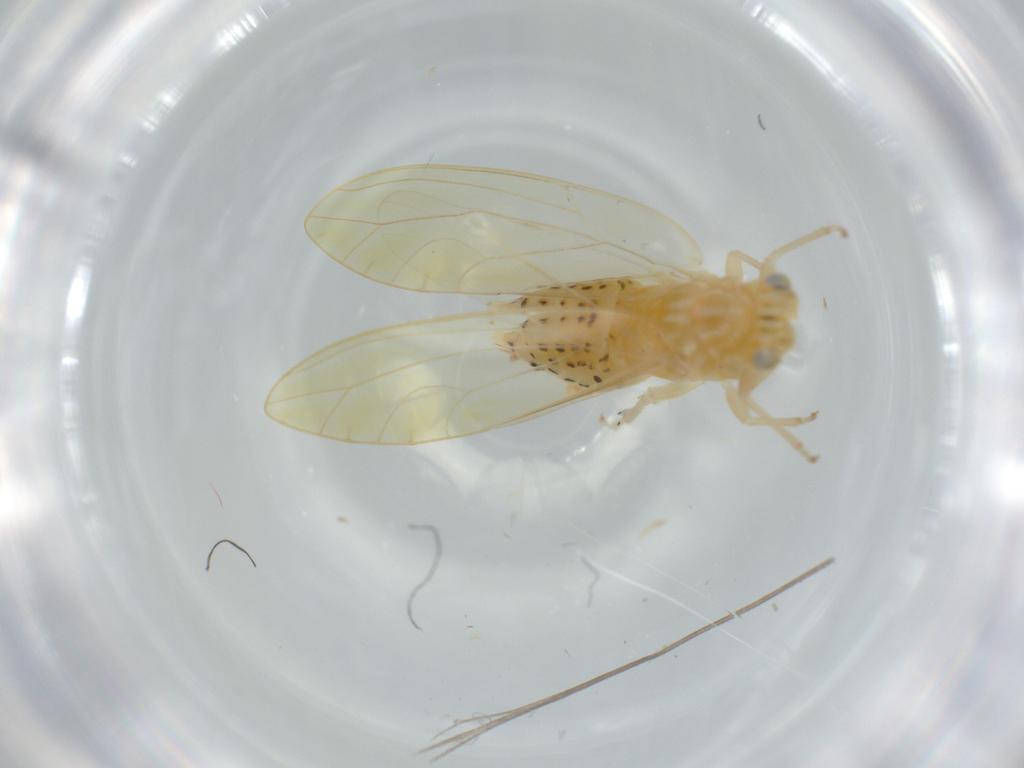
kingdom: Animalia
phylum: Arthropoda
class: Insecta
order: Hemiptera
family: Triozidae
